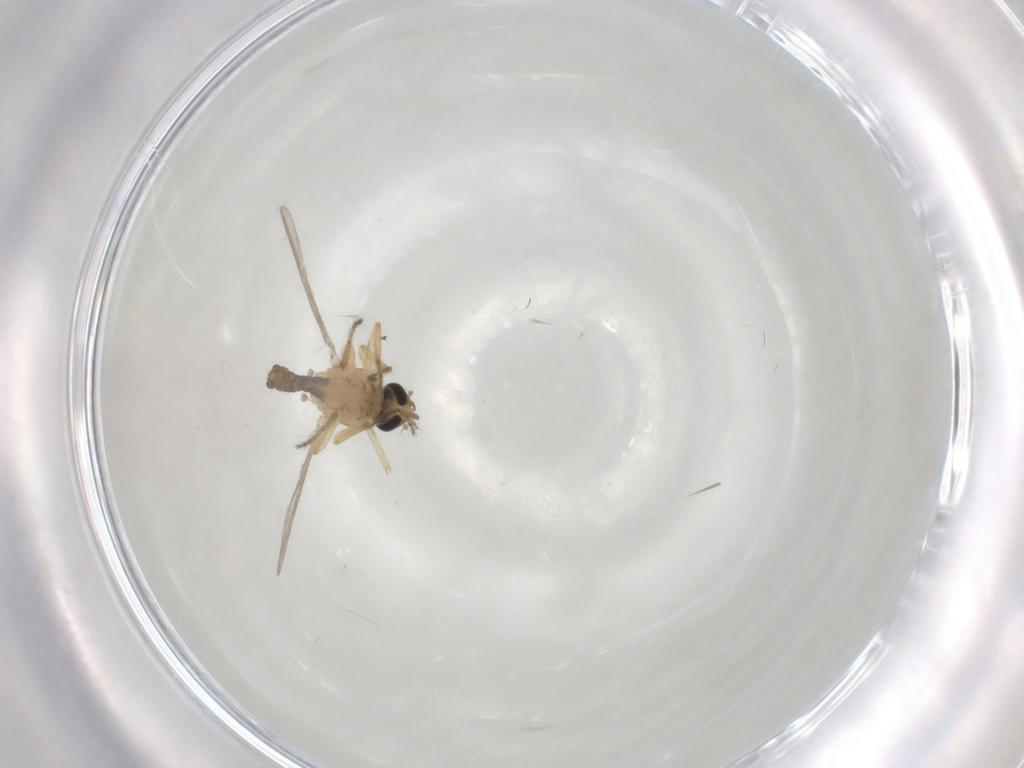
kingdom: Animalia
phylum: Arthropoda
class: Insecta
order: Diptera
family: Ceratopogonidae
